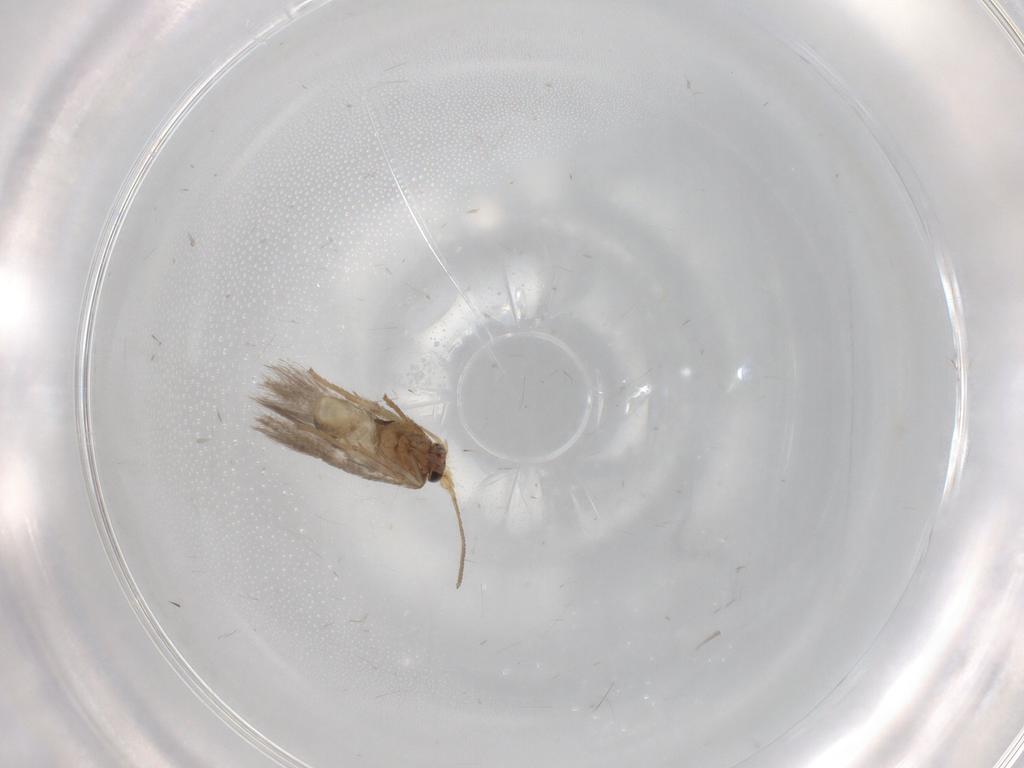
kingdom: Animalia
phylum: Arthropoda
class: Insecta
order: Lepidoptera
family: Nepticulidae
